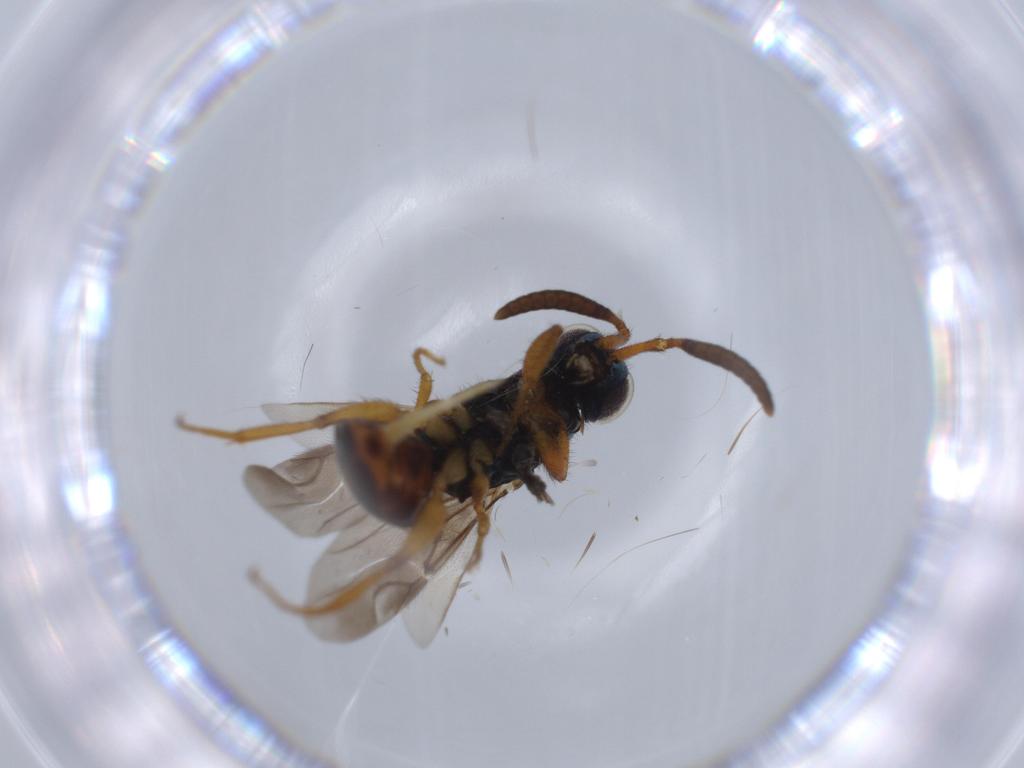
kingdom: Animalia
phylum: Arthropoda
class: Insecta
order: Hymenoptera
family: Chrysididae
